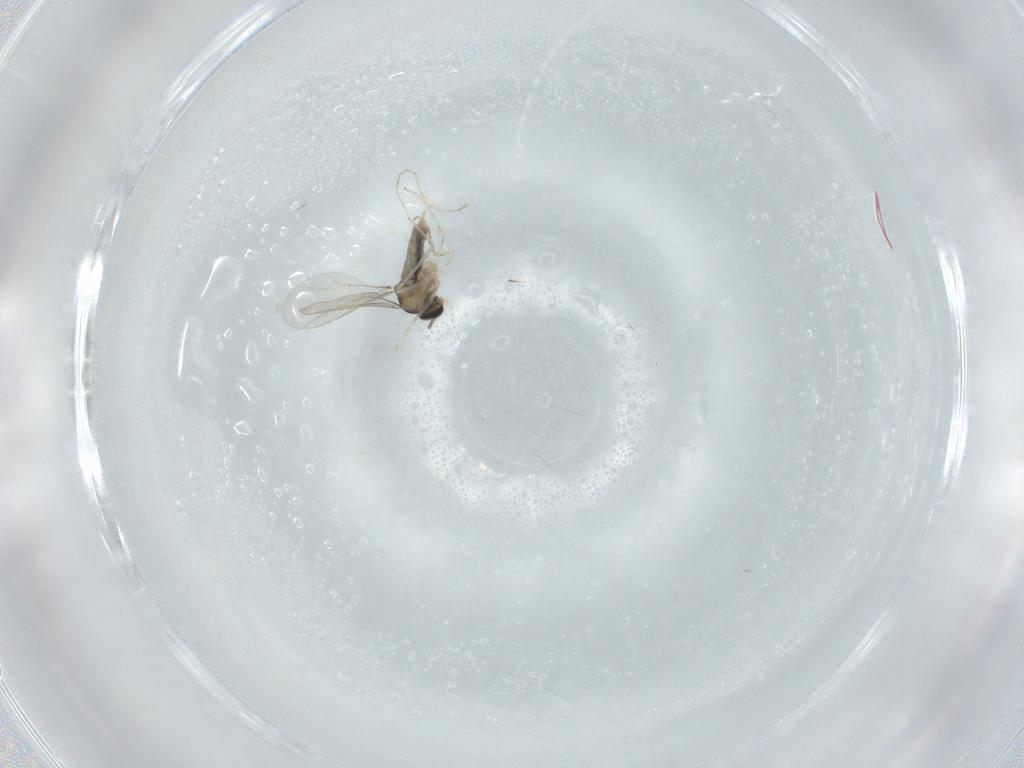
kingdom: Animalia
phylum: Arthropoda
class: Insecta
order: Diptera
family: Cecidomyiidae
